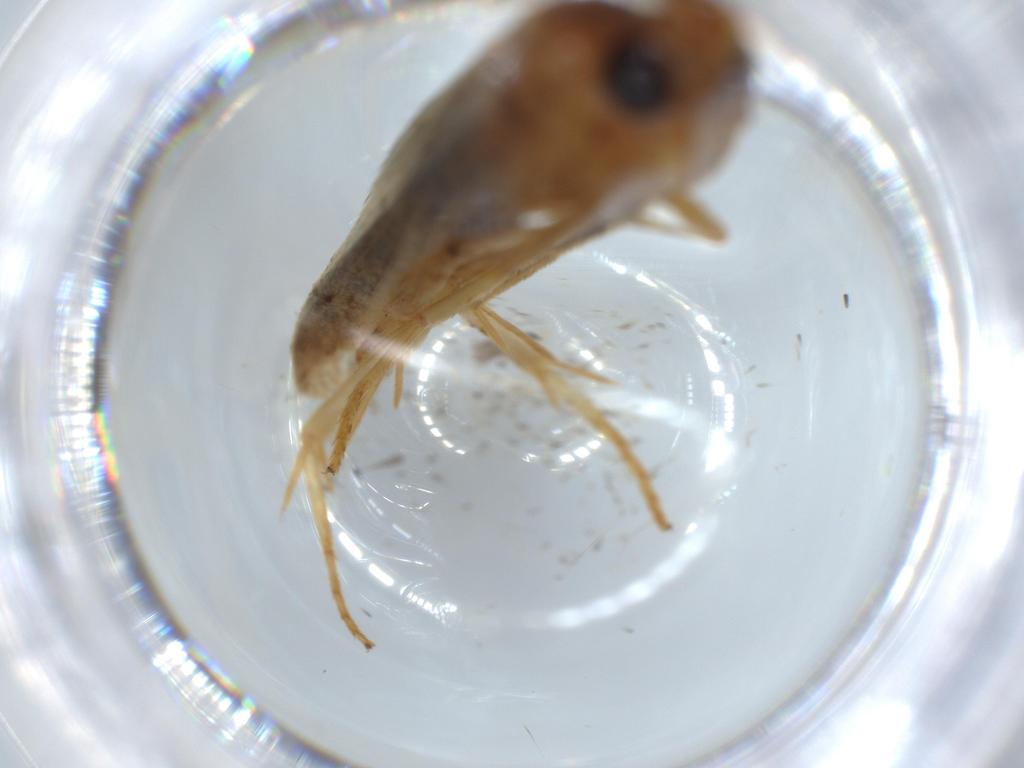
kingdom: Animalia
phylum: Arthropoda
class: Insecta
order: Lepidoptera
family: Blastobasidae
